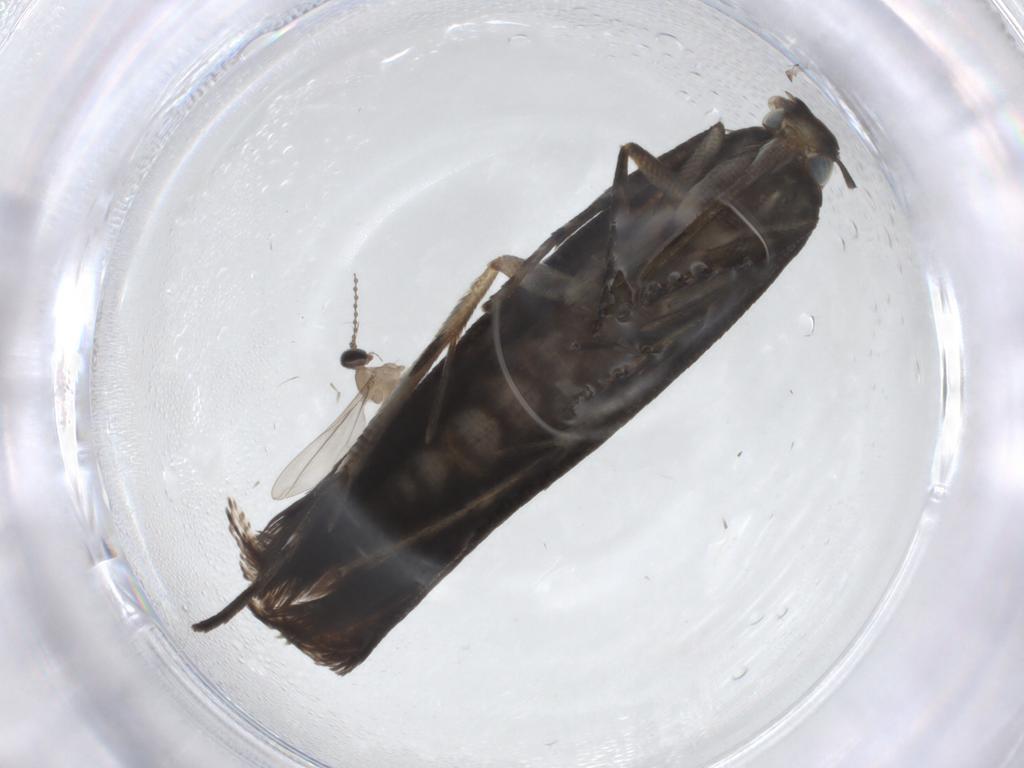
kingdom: Animalia
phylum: Arthropoda
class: Insecta
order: Lepidoptera
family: Crambidae
